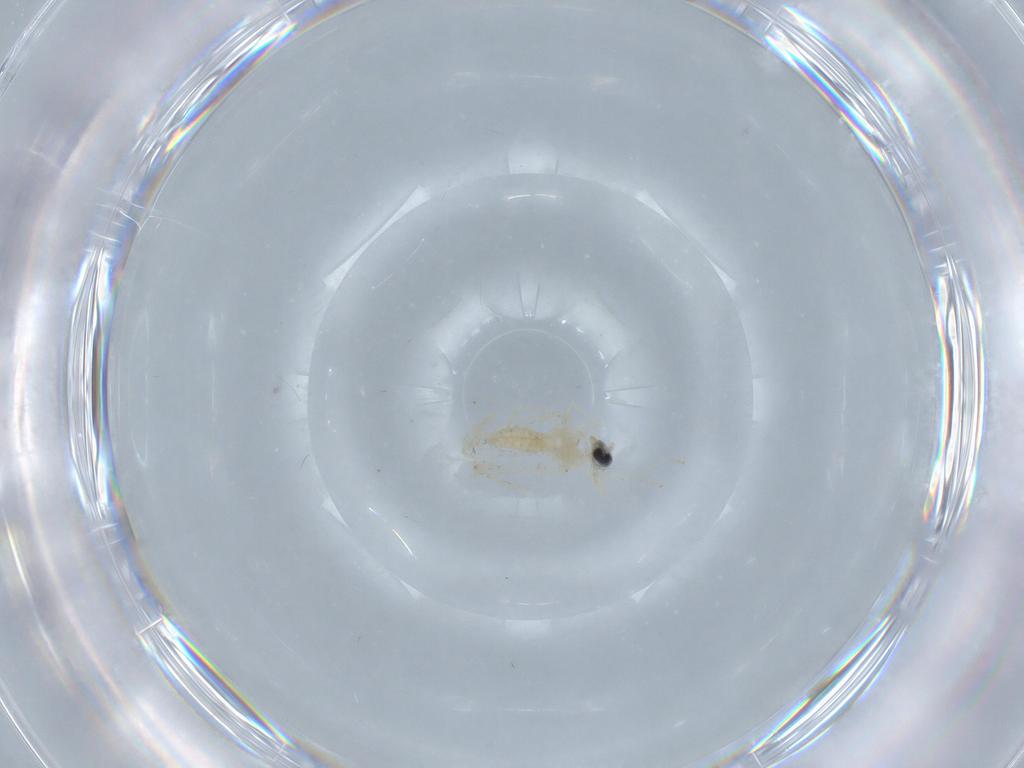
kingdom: Animalia
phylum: Arthropoda
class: Insecta
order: Diptera
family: Cecidomyiidae
